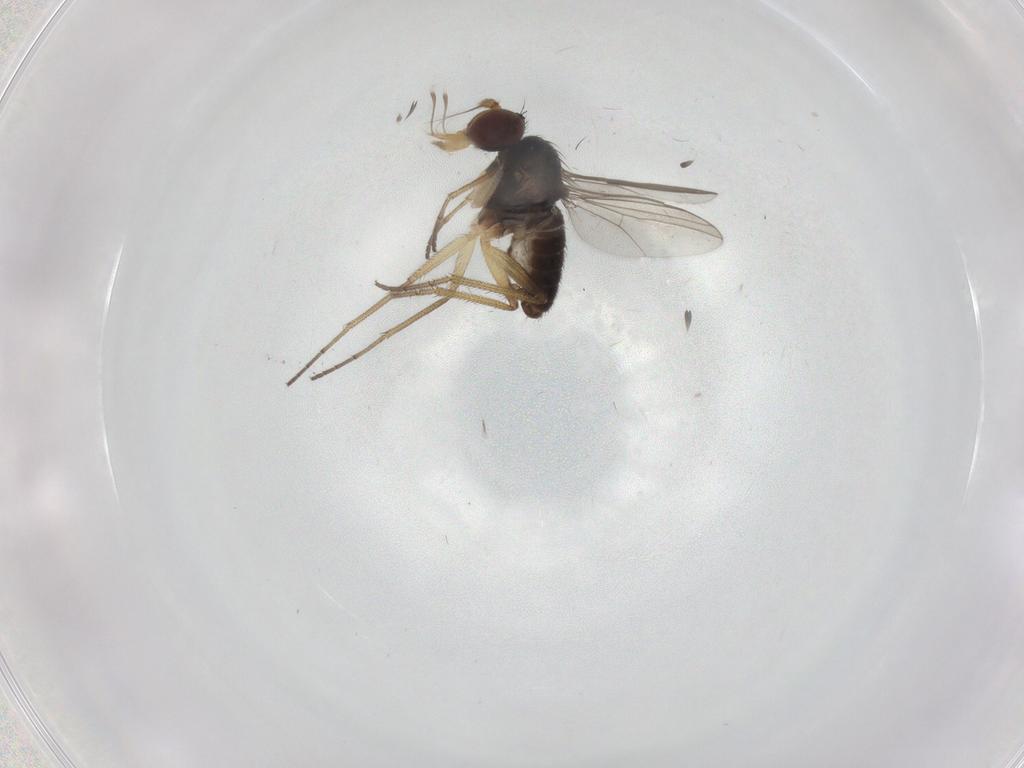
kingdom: Animalia
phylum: Arthropoda
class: Insecta
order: Diptera
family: Dolichopodidae
